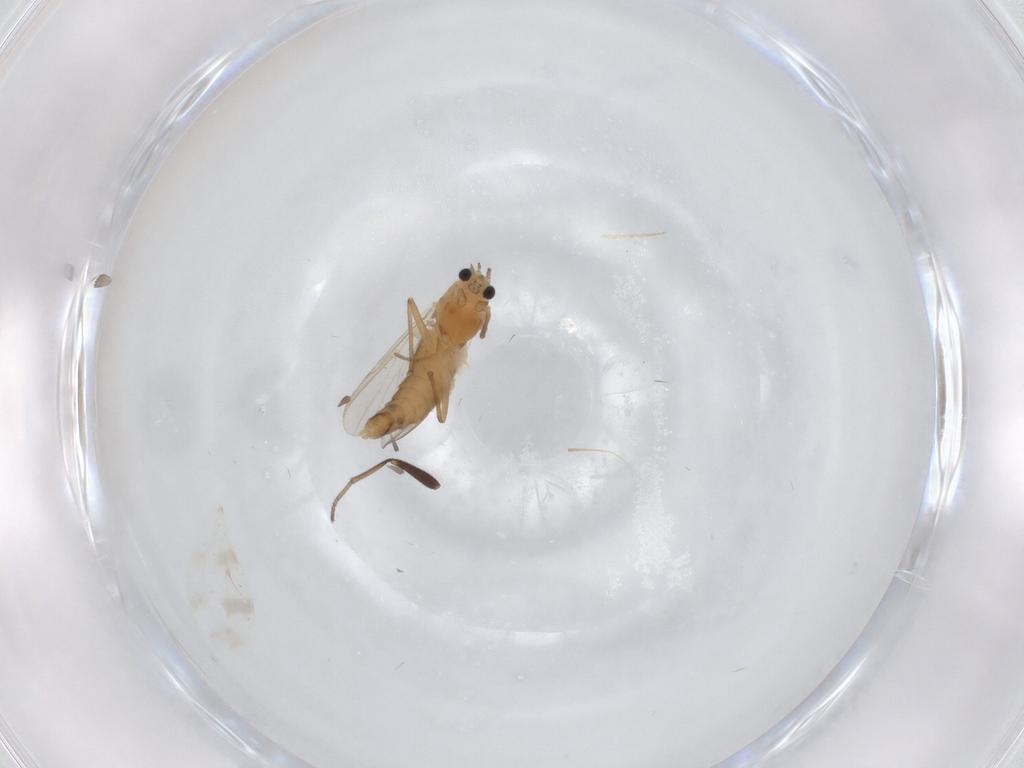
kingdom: Animalia
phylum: Arthropoda
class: Insecta
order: Diptera
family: Chironomidae
